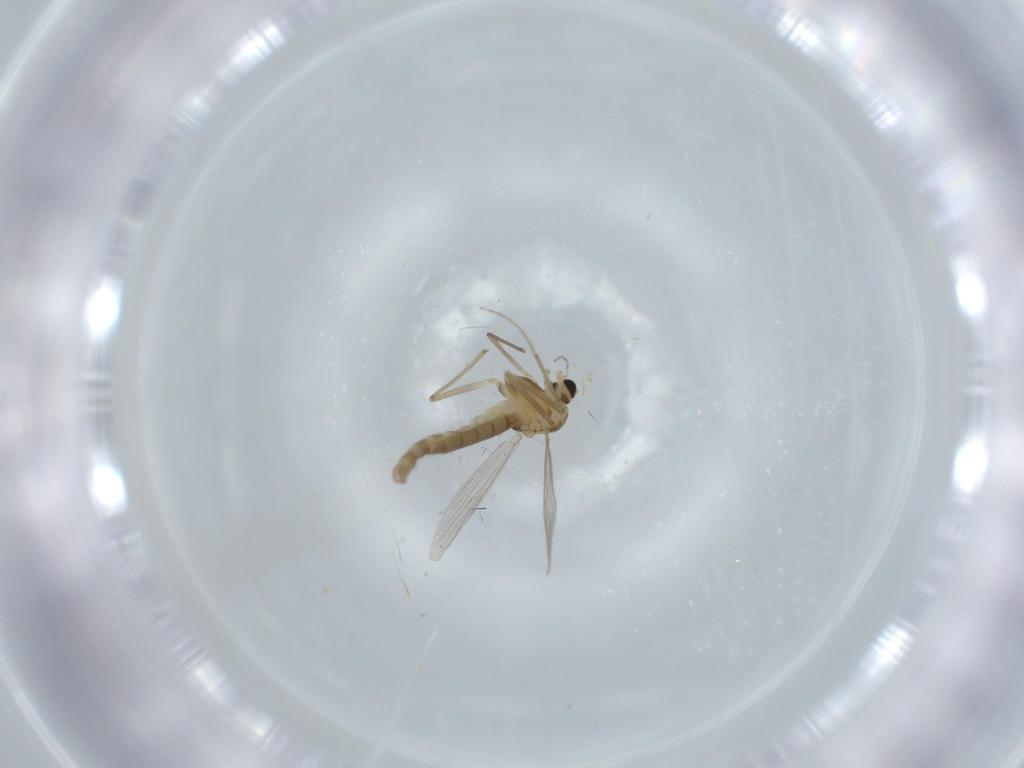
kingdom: Animalia
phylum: Arthropoda
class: Insecta
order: Diptera
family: Chironomidae
